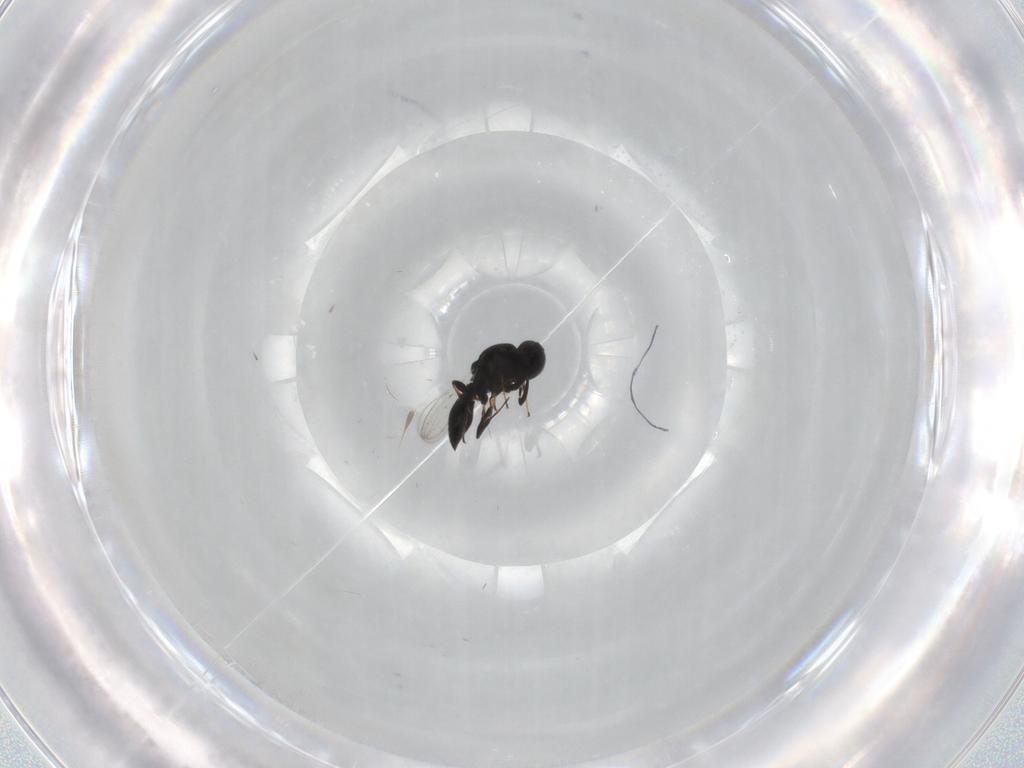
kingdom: Animalia
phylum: Arthropoda
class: Insecta
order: Hymenoptera
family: Platygastridae
